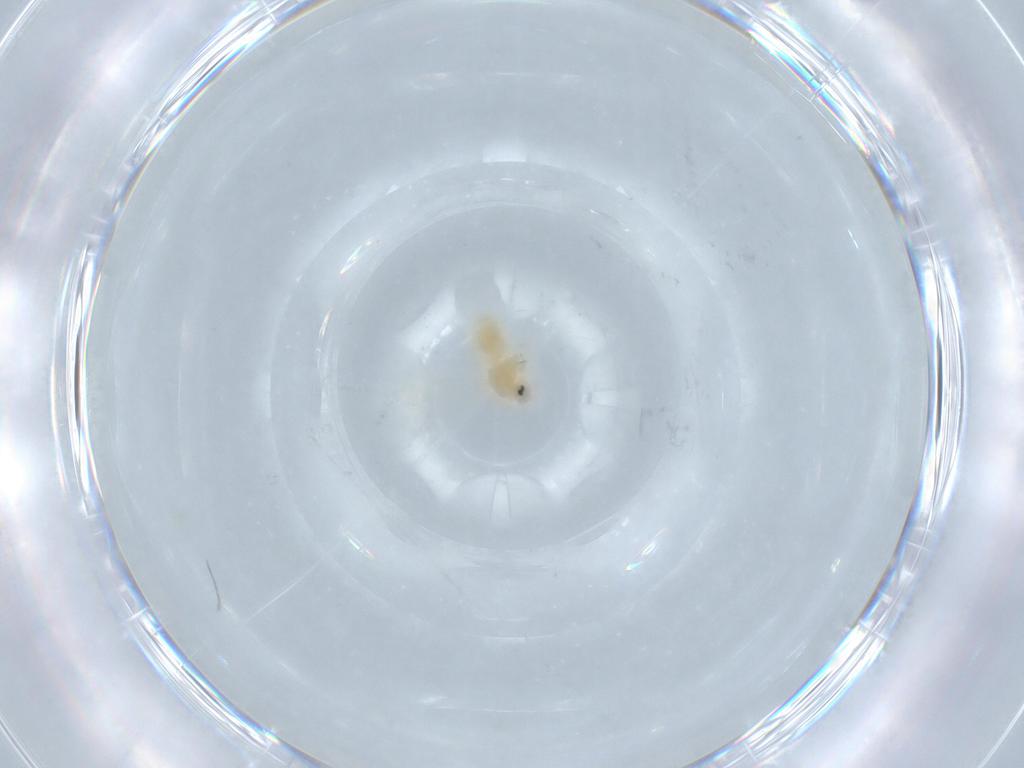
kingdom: Animalia
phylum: Arthropoda
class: Insecta
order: Hemiptera
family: Aleyrodidae
